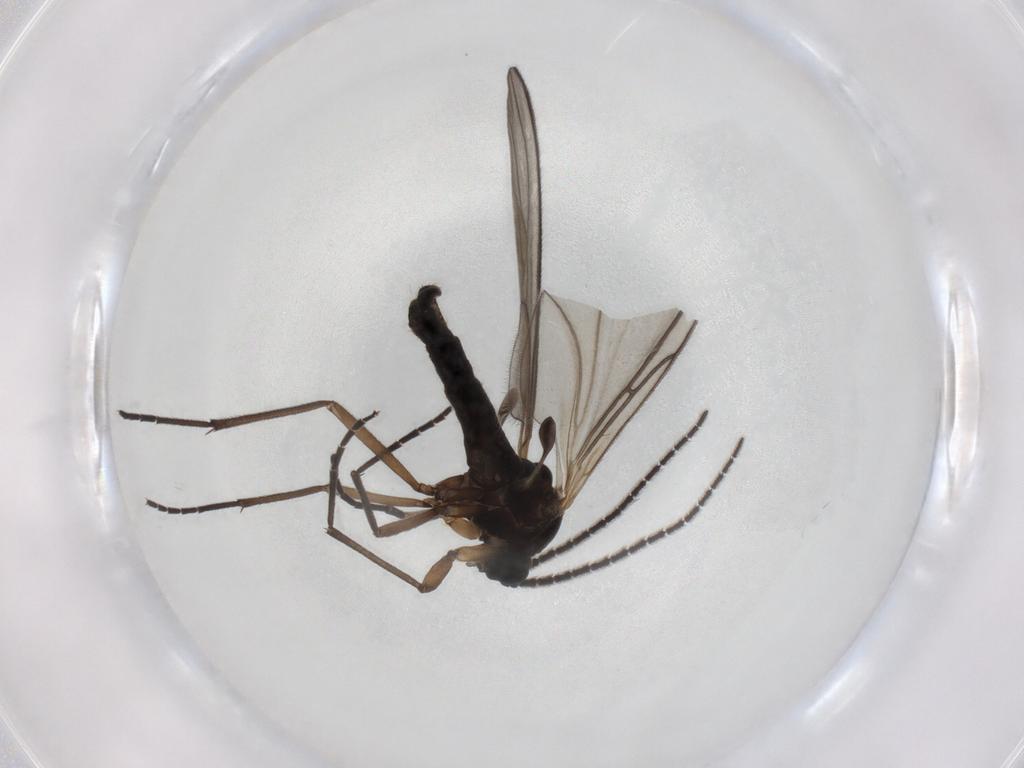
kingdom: Animalia
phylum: Arthropoda
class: Insecta
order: Diptera
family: Sciaridae
